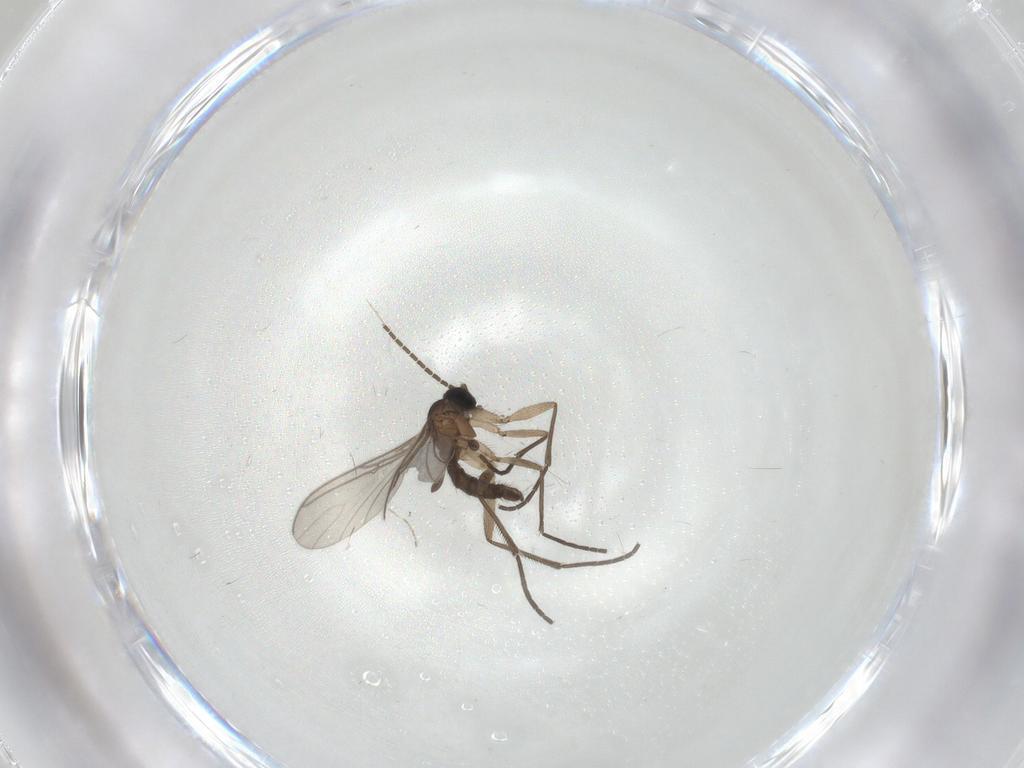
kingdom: Animalia
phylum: Arthropoda
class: Insecta
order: Diptera
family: Sciaridae
